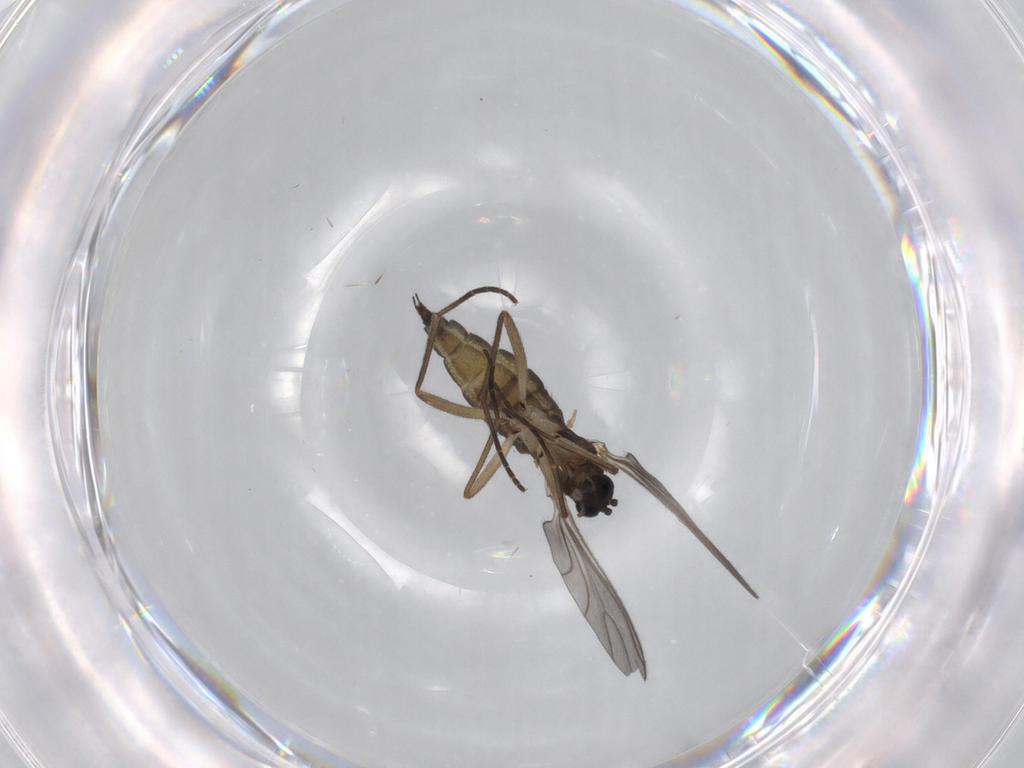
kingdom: Animalia
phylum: Arthropoda
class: Insecta
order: Diptera
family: Sciaridae
